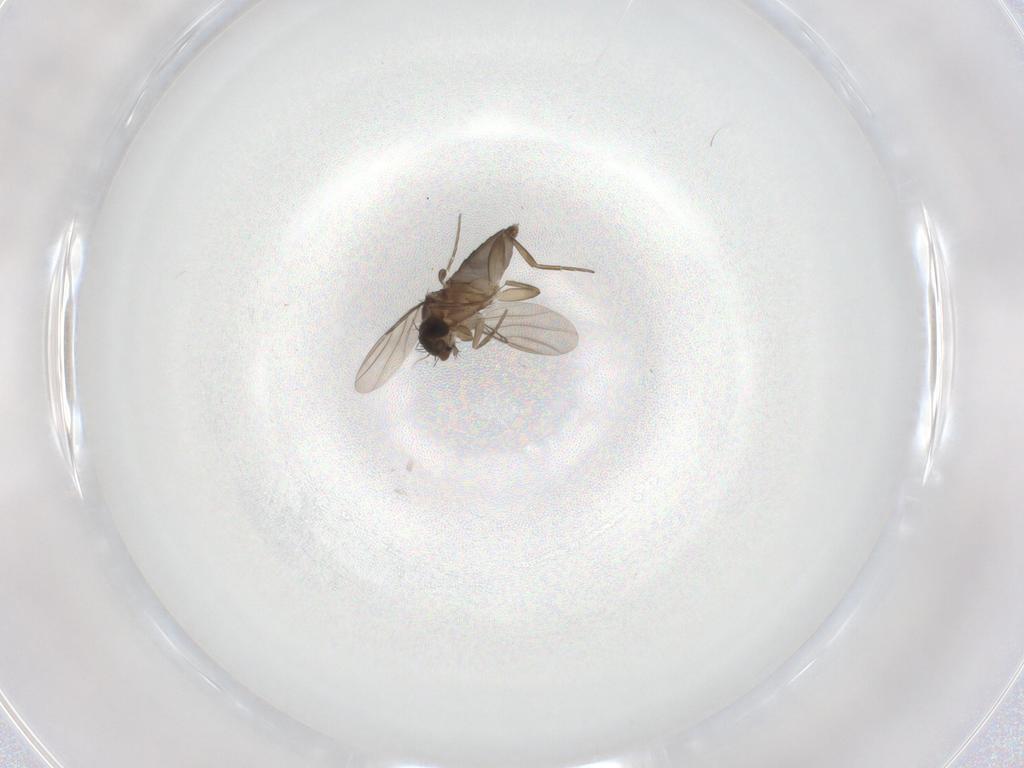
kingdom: Animalia
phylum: Arthropoda
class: Insecta
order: Diptera
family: Phoridae
